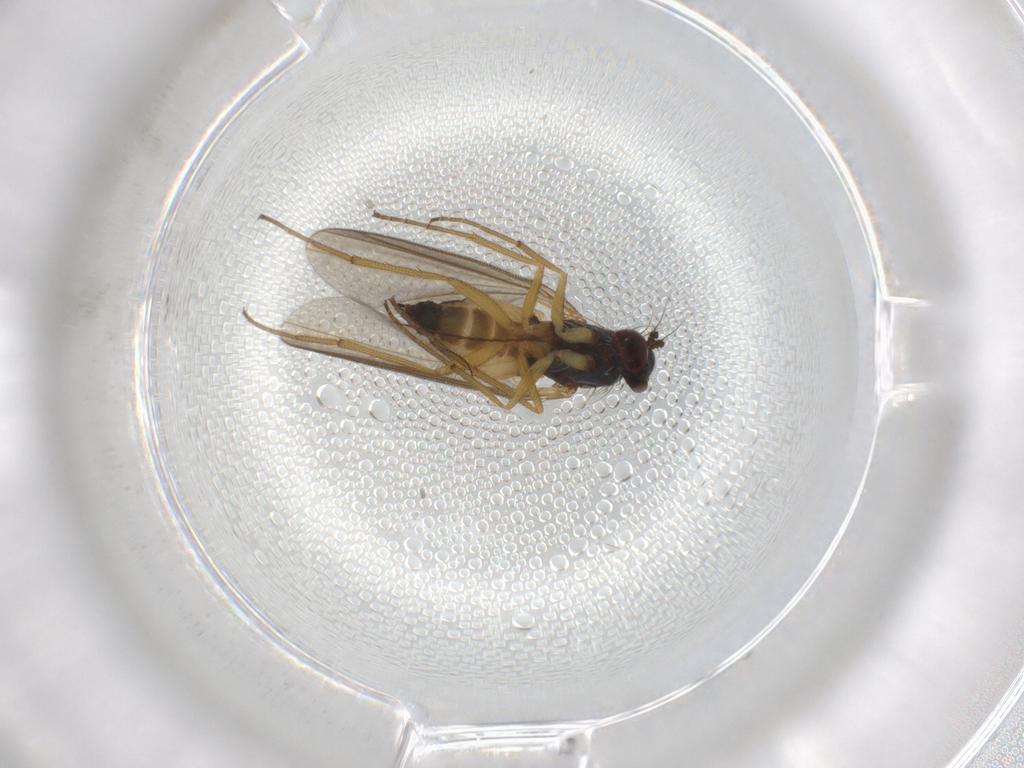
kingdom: Animalia
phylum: Arthropoda
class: Insecta
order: Diptera
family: Dolichopodidae
